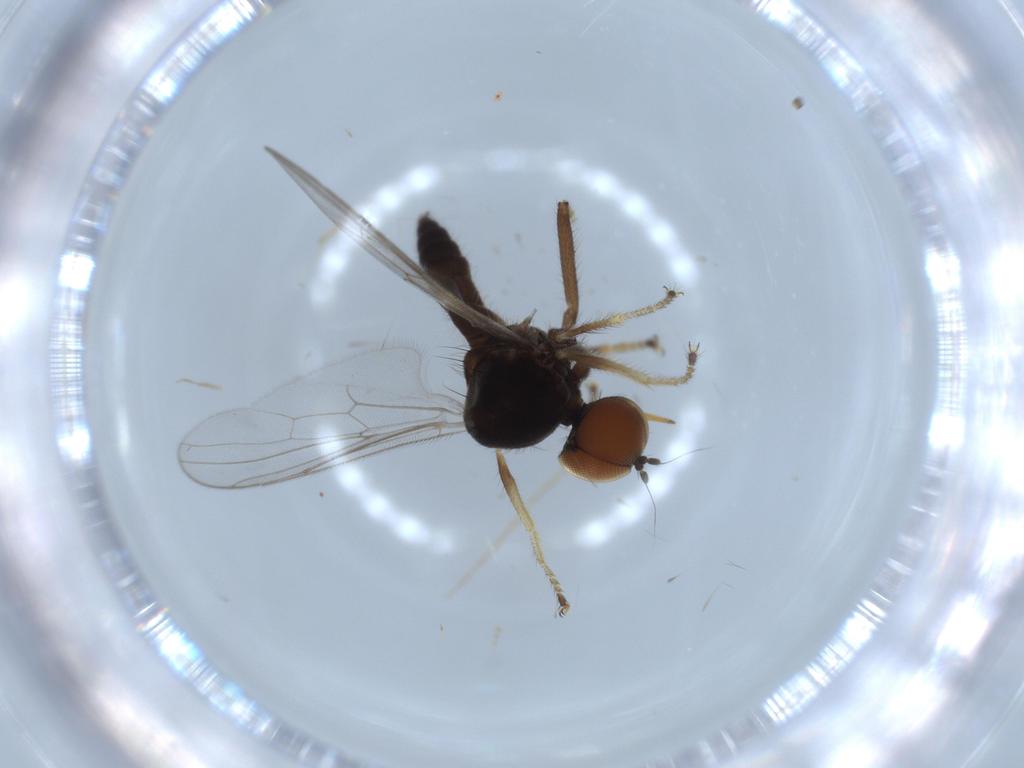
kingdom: Animalia
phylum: Arthropoda
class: Insecta
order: Diptera
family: Hybotidae
